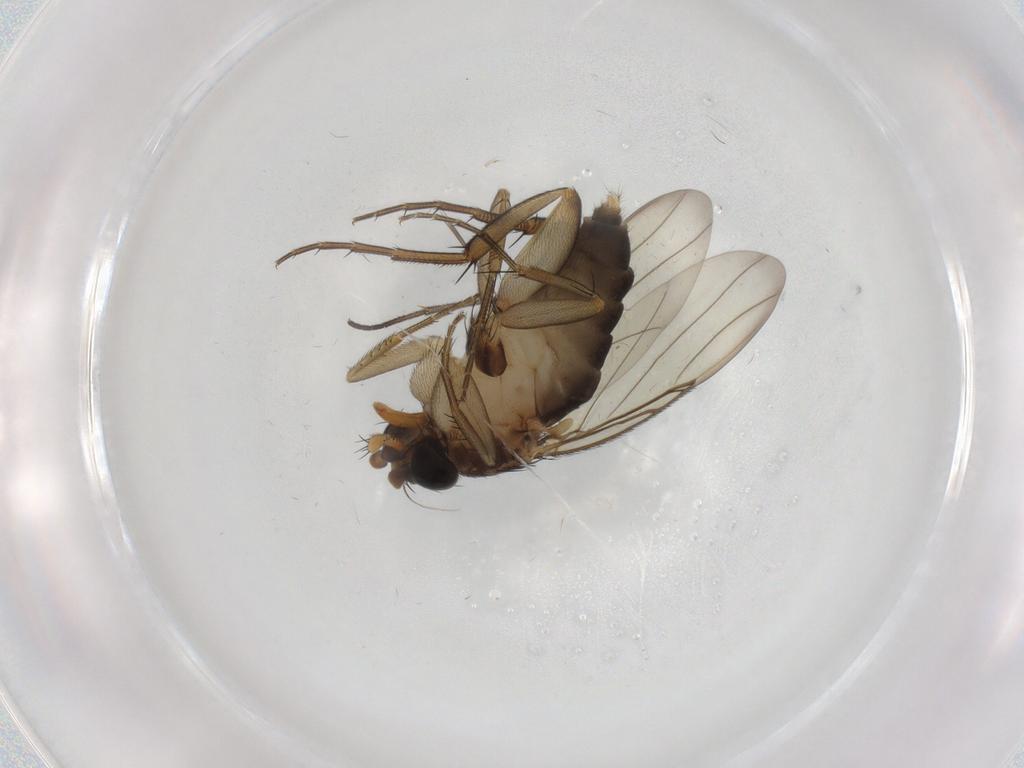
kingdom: Animalia
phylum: Arthropoda
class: Insecta
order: Diptera
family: Phoridae
